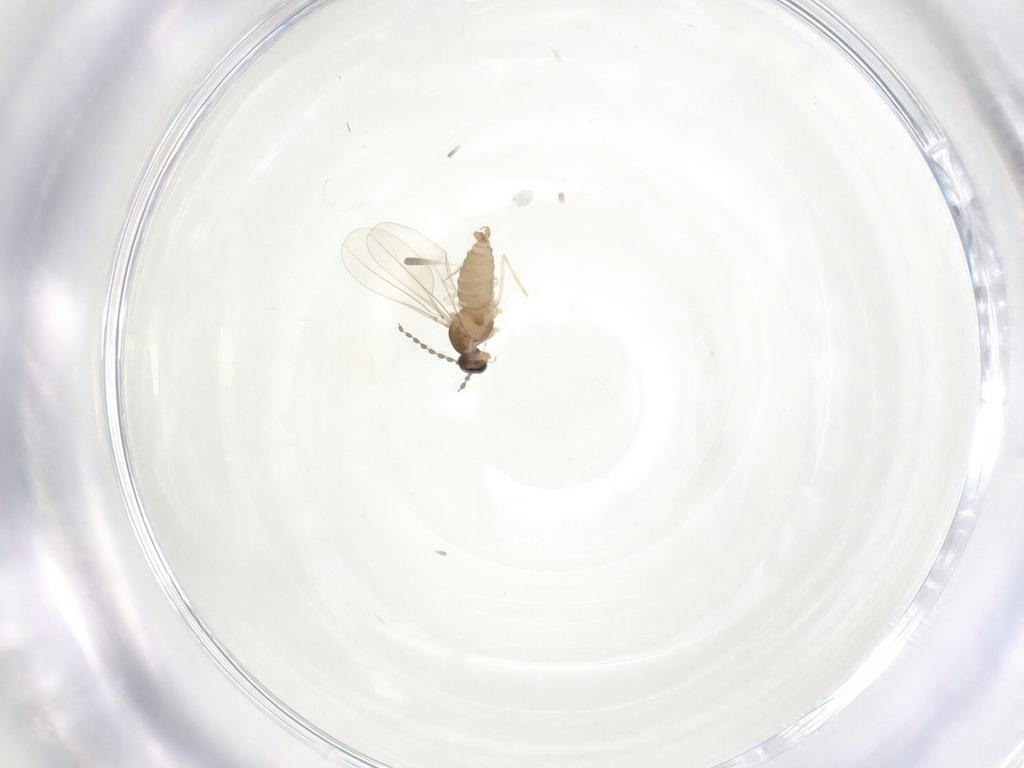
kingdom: Animalia
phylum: Arthropoda
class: Insecta
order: Diptera
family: Cecidomyiidae
